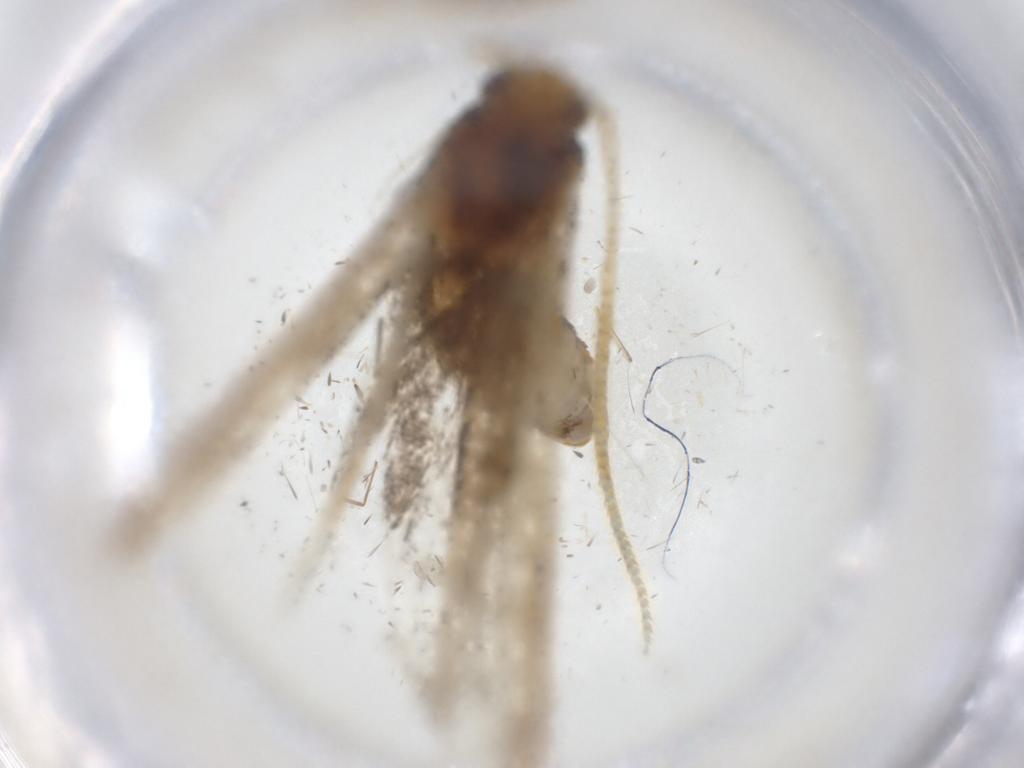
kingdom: Animalia
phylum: Arthropoda
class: Insecta
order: Lepidoptera
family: Lecithoceridae
